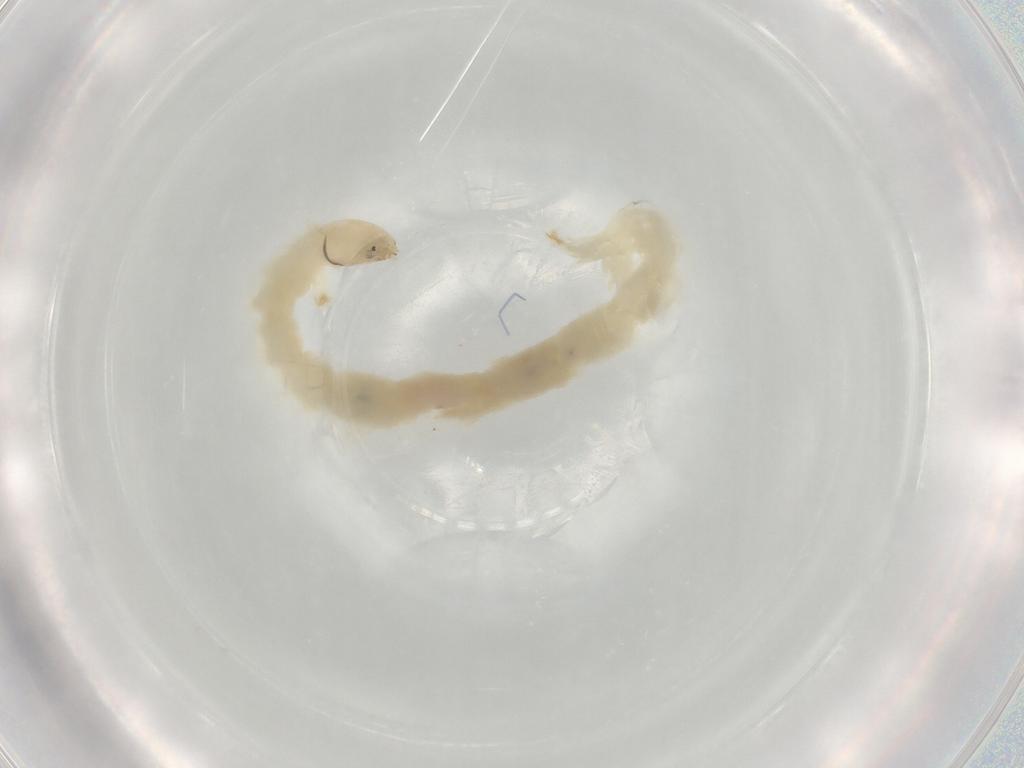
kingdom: Animalia
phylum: Arthropoda
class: Insecta
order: Diptera
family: Chironomidae
